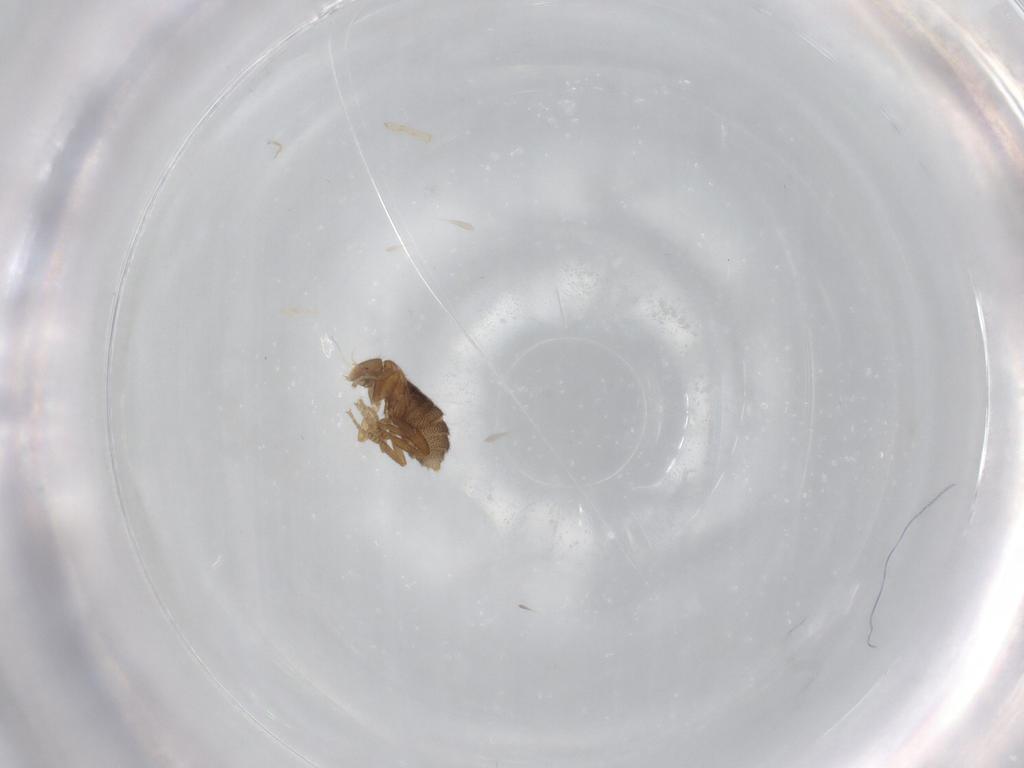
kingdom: Animalia
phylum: Arthropoda
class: Insecta
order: Diptera
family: Phoridae
